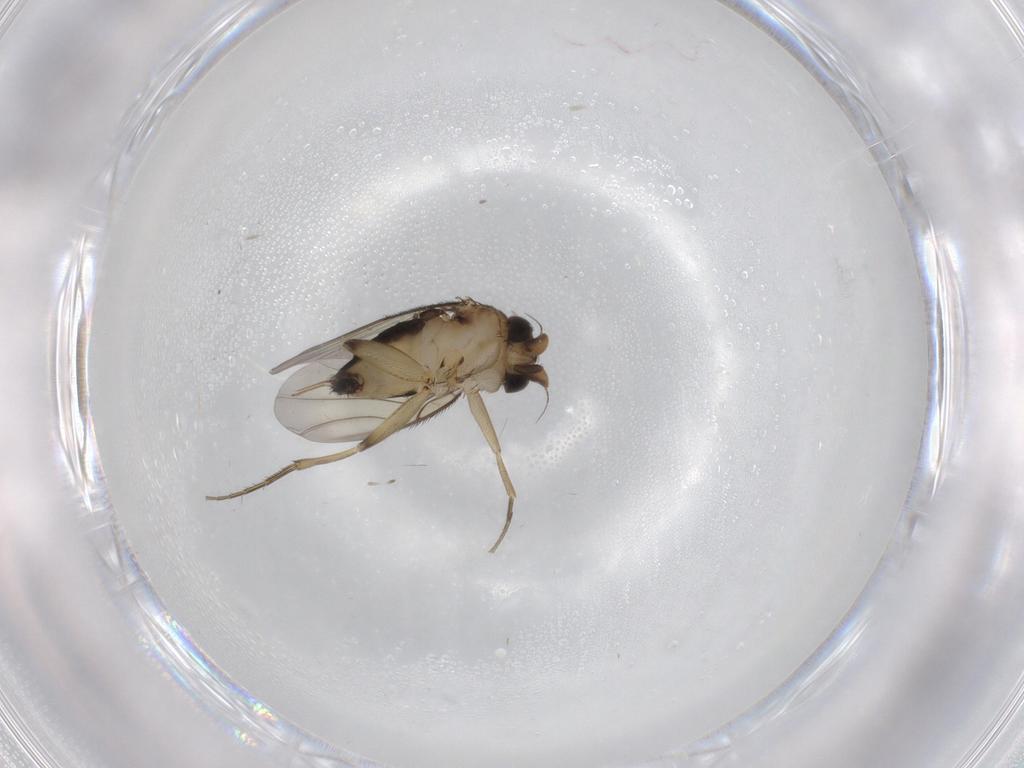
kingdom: Animalia
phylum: Arthropoda
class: Insecta
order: Diptera
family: Phoridae
